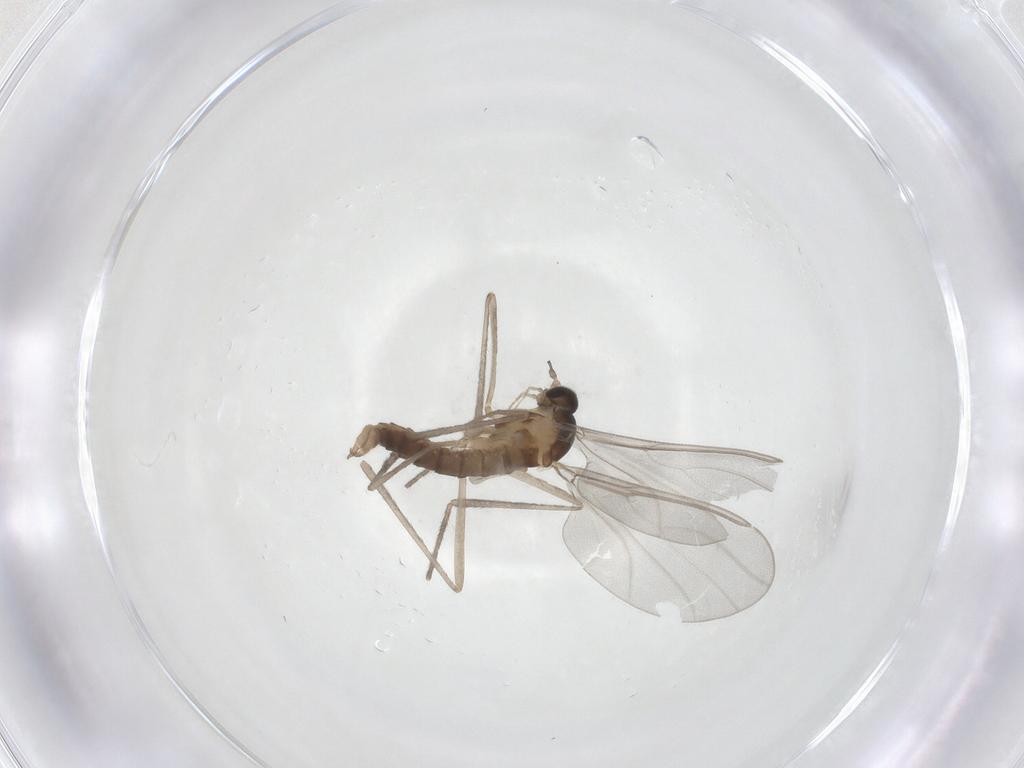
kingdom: Animalia
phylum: Arthropoda
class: Insecta
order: Diptera
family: Cecidomyiidae
